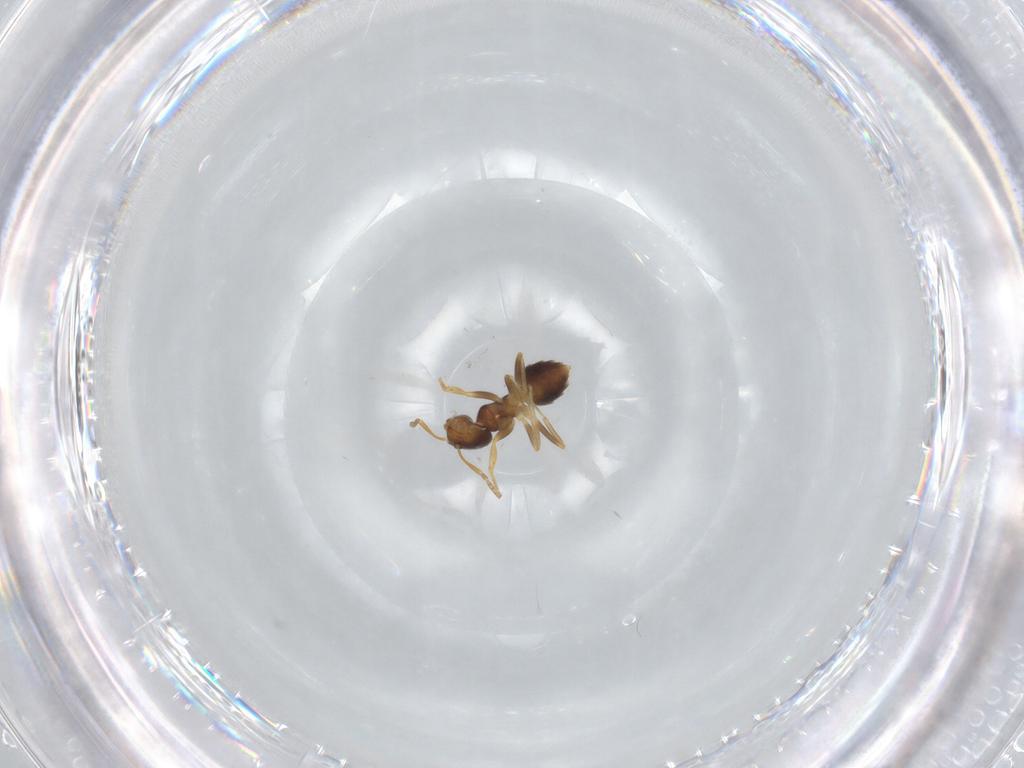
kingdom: Animalia
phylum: Arthropoda
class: Insecta
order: Hymenoptera
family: Formicidae
